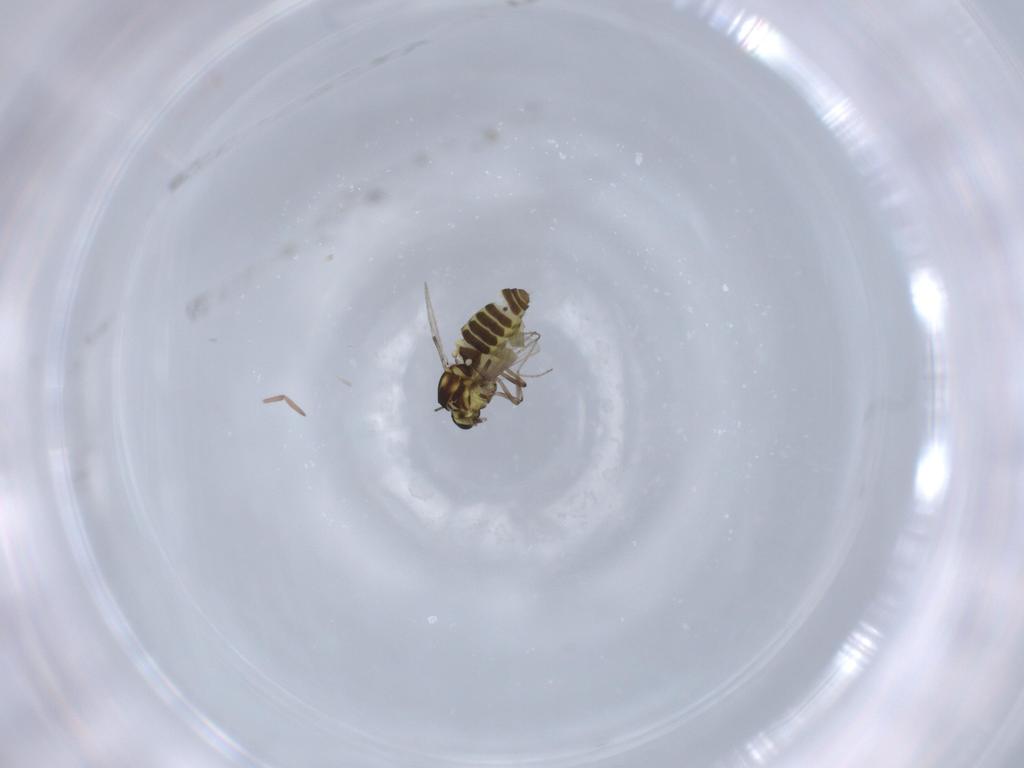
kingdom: Animalia
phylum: Arthropoda
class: Insecta
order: Diptera
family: Ceratopogonidae
